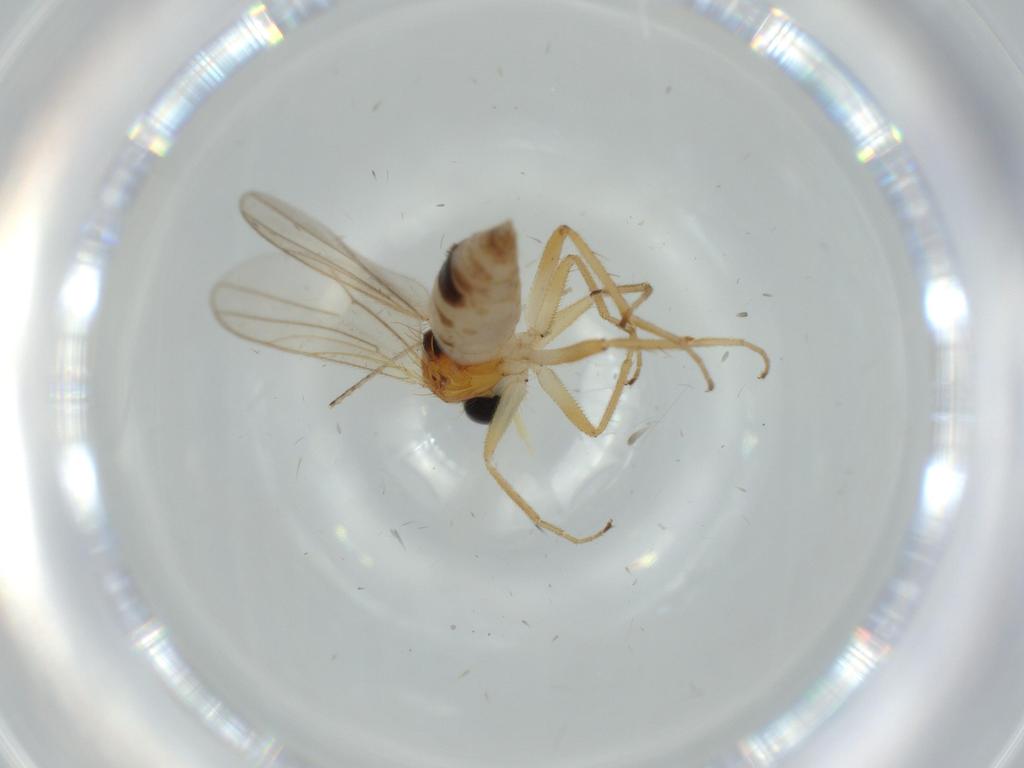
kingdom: Animalia
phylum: Arthropoda
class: Insecta
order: Diptera
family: Hybotidae
